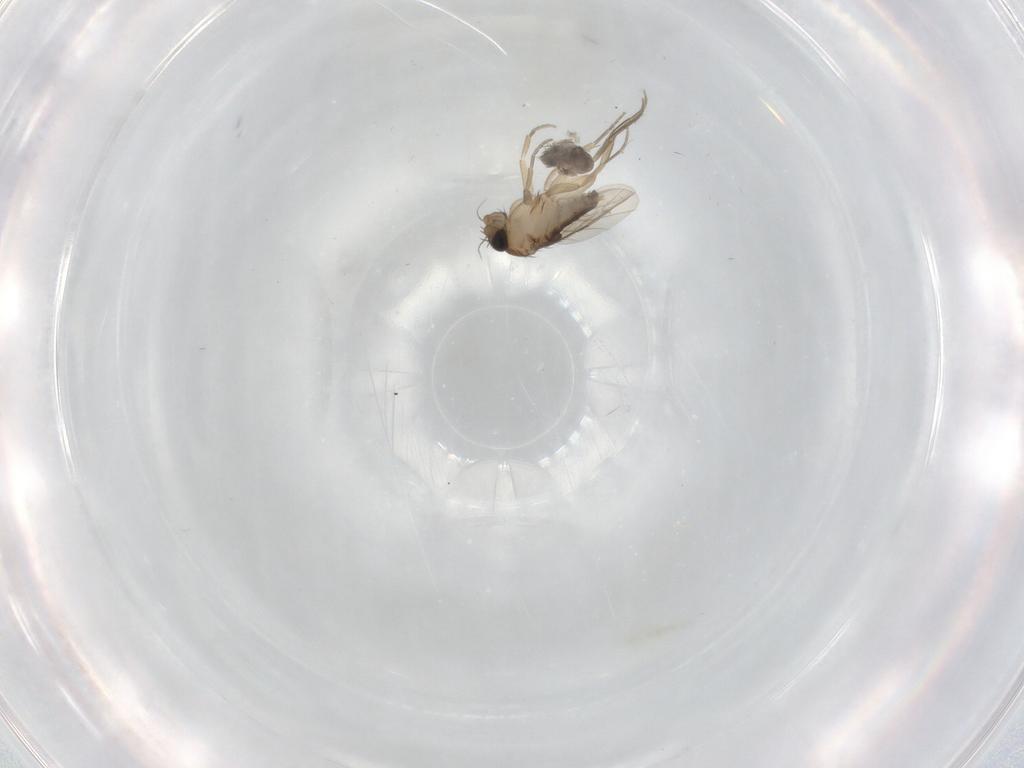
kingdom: Animalia
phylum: Arthropoda
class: Insecta
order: Diptera
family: Phoridae
